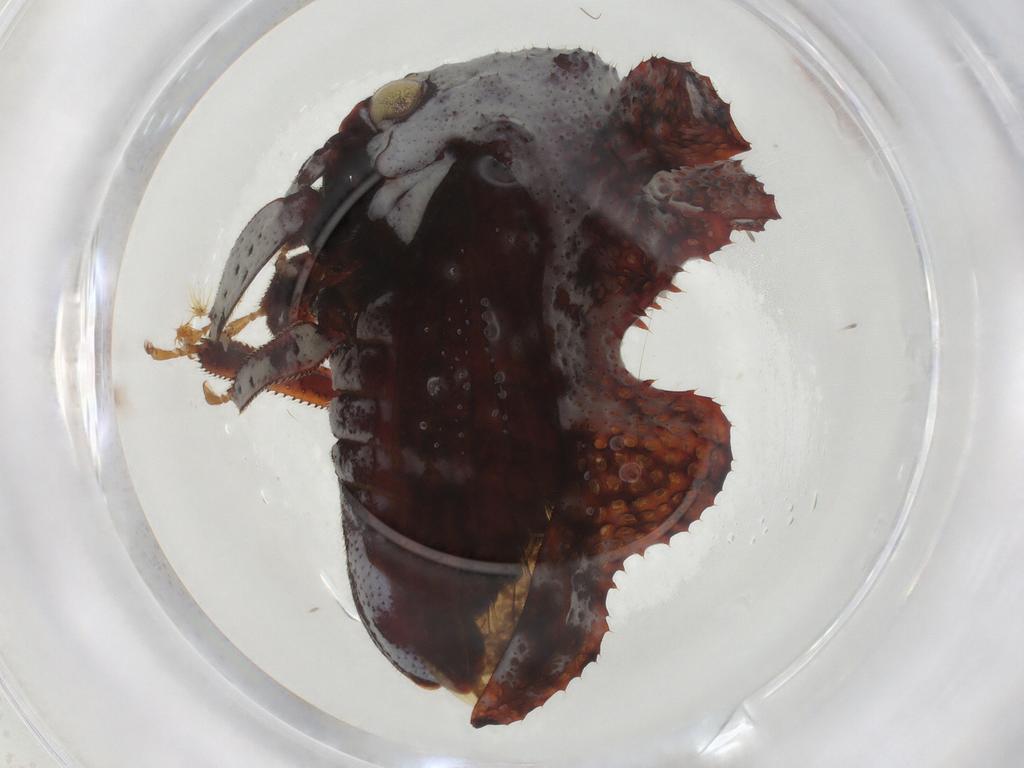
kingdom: Animalia
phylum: Arthropoda
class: Insecta
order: Hemiptera
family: Membracidae
